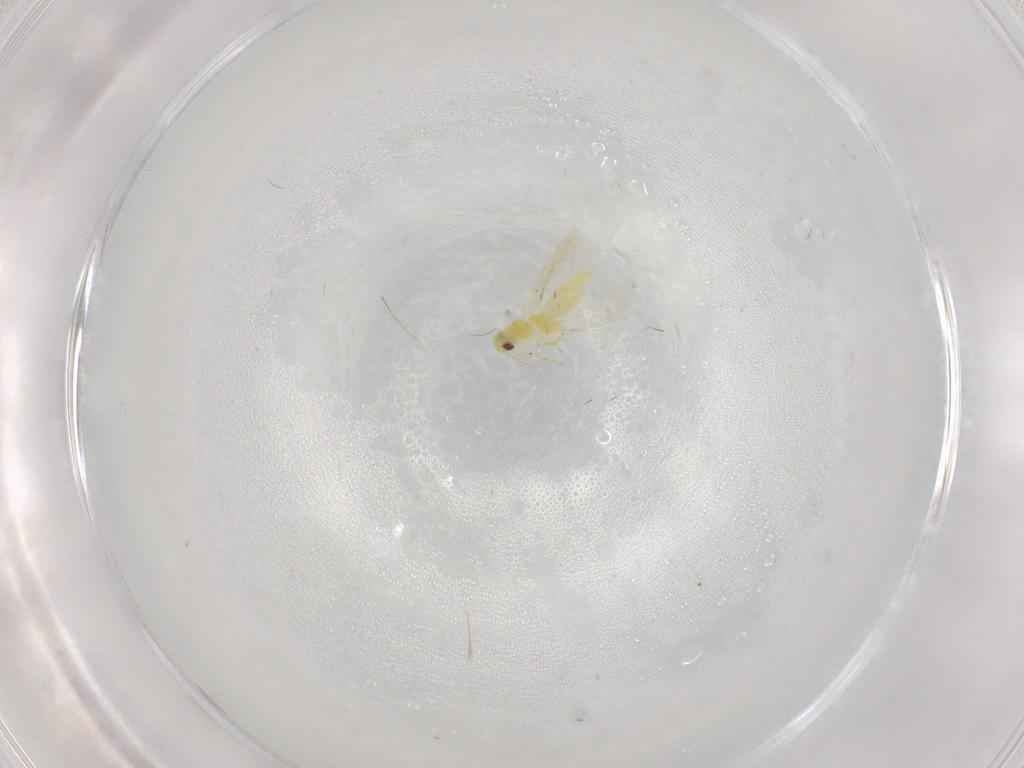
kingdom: Animalia
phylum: Arthropoda
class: Insecta
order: Hemiptera
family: Aleyrodidae
